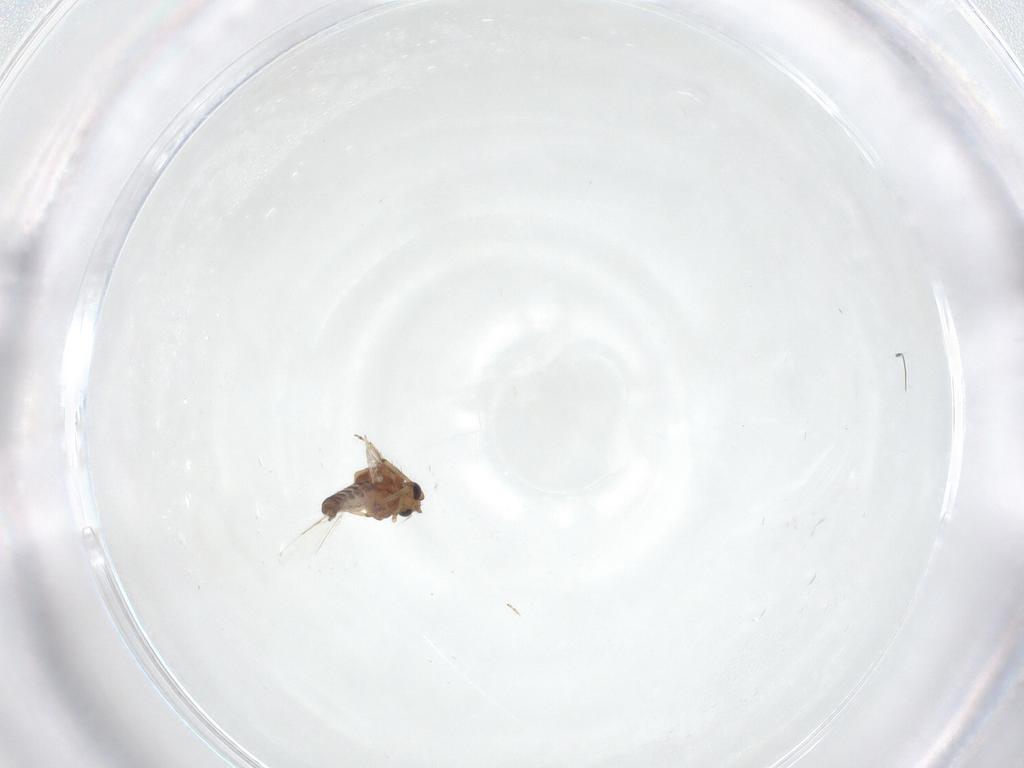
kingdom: Animalia
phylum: Arthropoda
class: Insecta
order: Diptera
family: Ceratopogonidae
